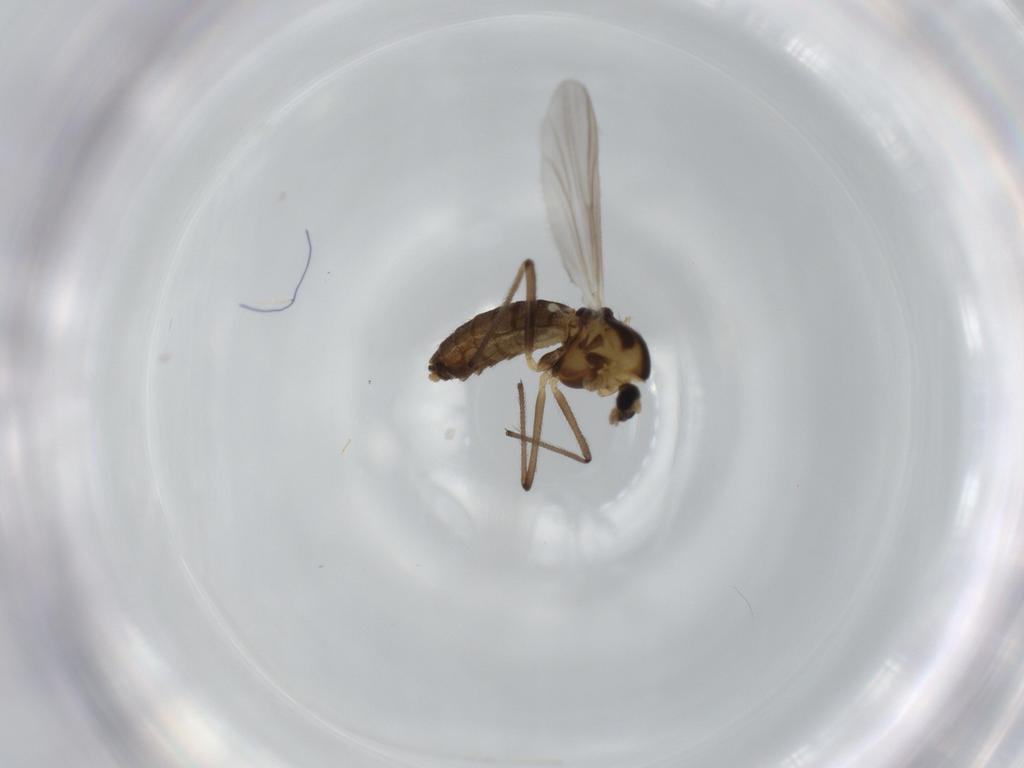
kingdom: Animalia
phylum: Arthropoda
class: Insecta
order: Diptera
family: Chironomidae
